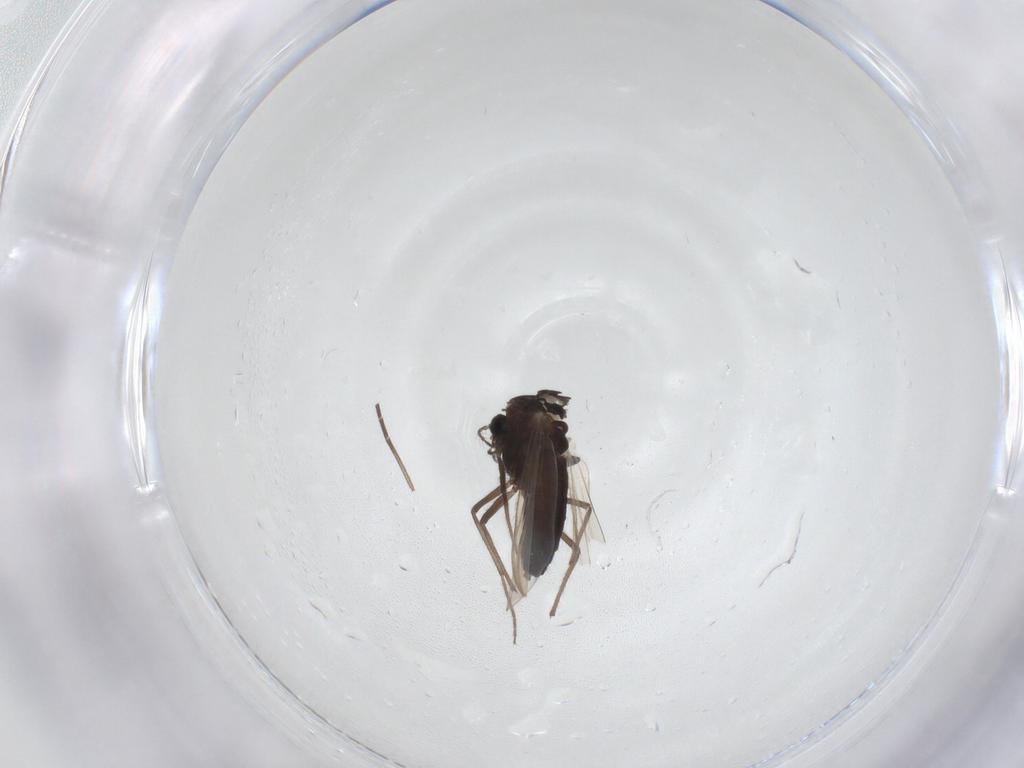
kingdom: Animalia
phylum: Arthropoda
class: Insecta
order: Diptera
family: Ceratopogonidae
